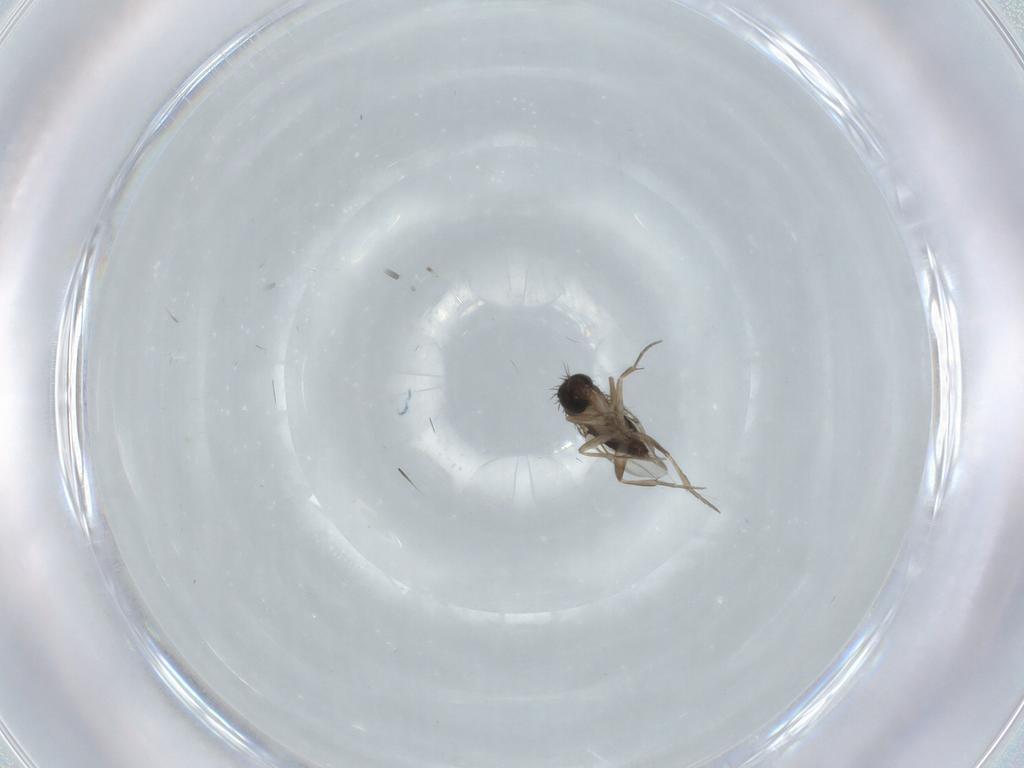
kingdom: Animalia
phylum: Arthropoda
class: Insecta
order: Diptera
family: Phoridae
